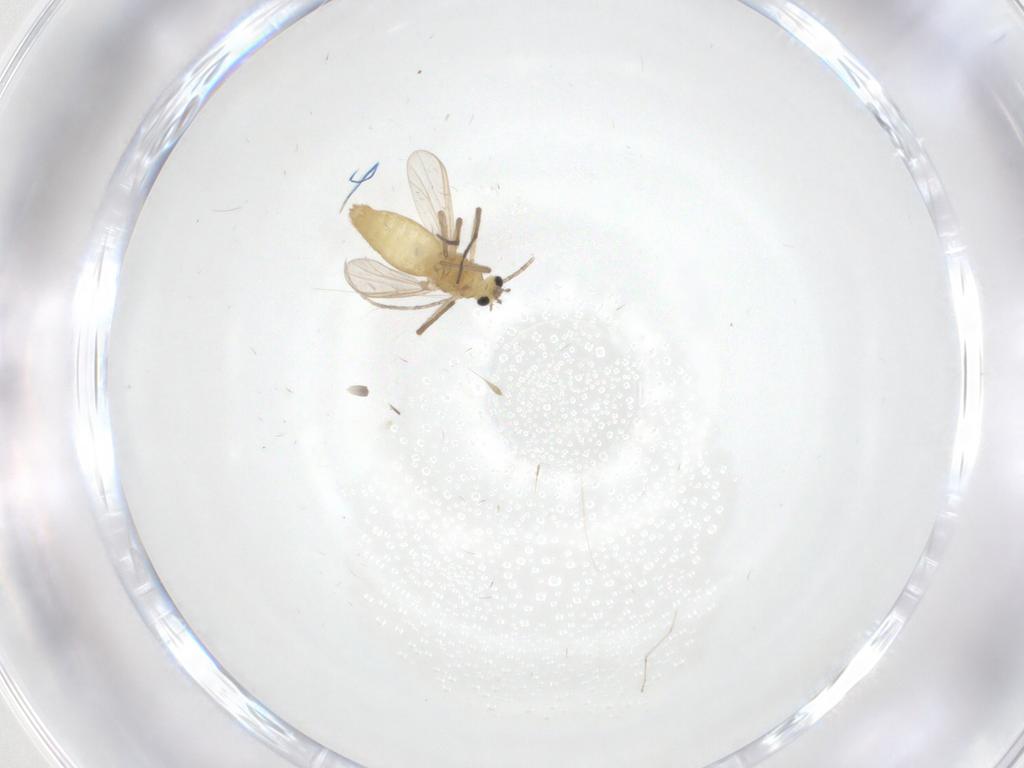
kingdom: Animalia
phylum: Arthropoda
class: Insecta
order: Diptera
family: Chironomidae
